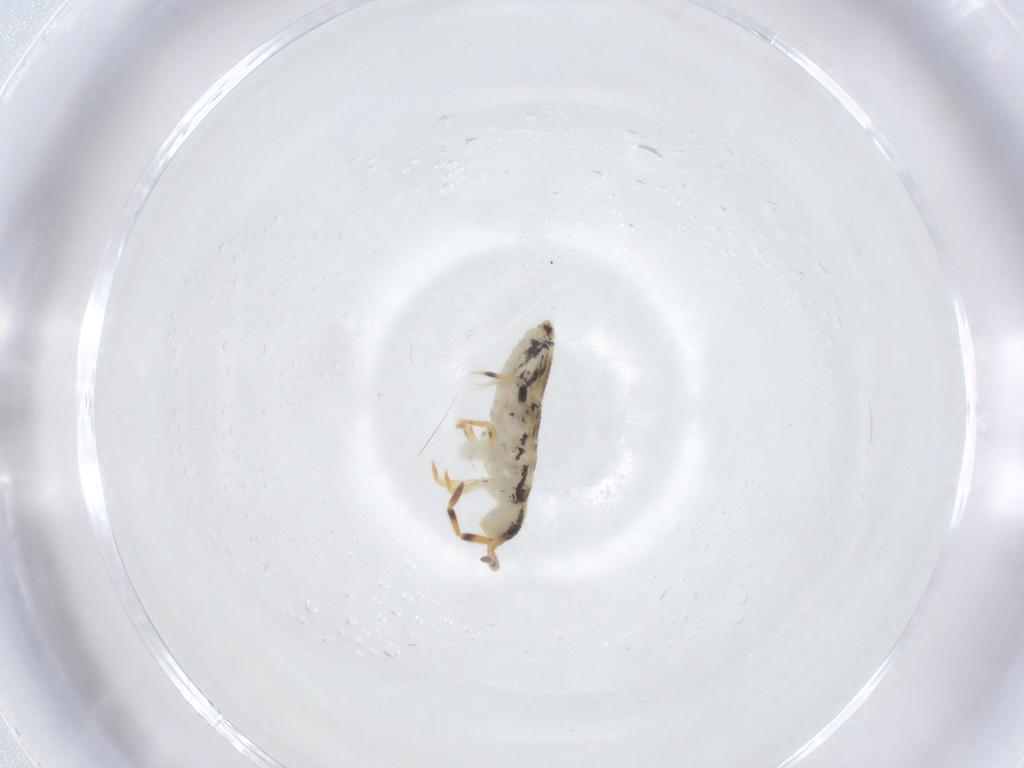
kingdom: Animalia
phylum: Arthropoda
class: Collembola
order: Entomobryomorpha
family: Isotomidae
